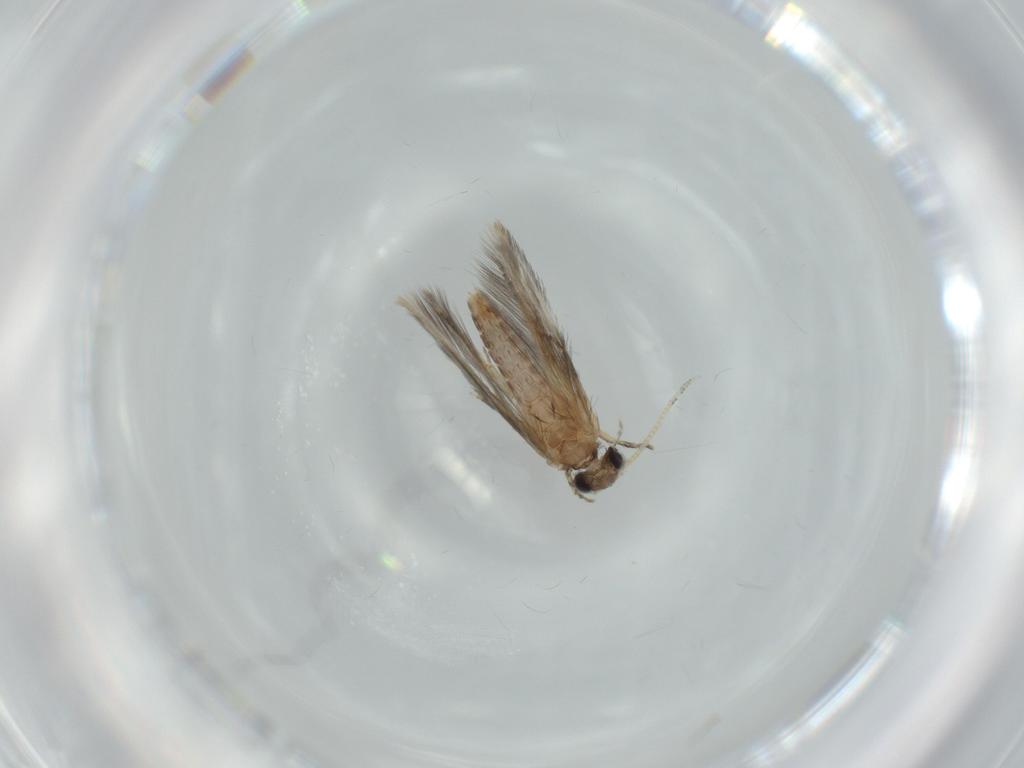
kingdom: Animalia
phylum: Arthropoda
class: Insecta
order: Trichoptera
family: Hydroptilidae
